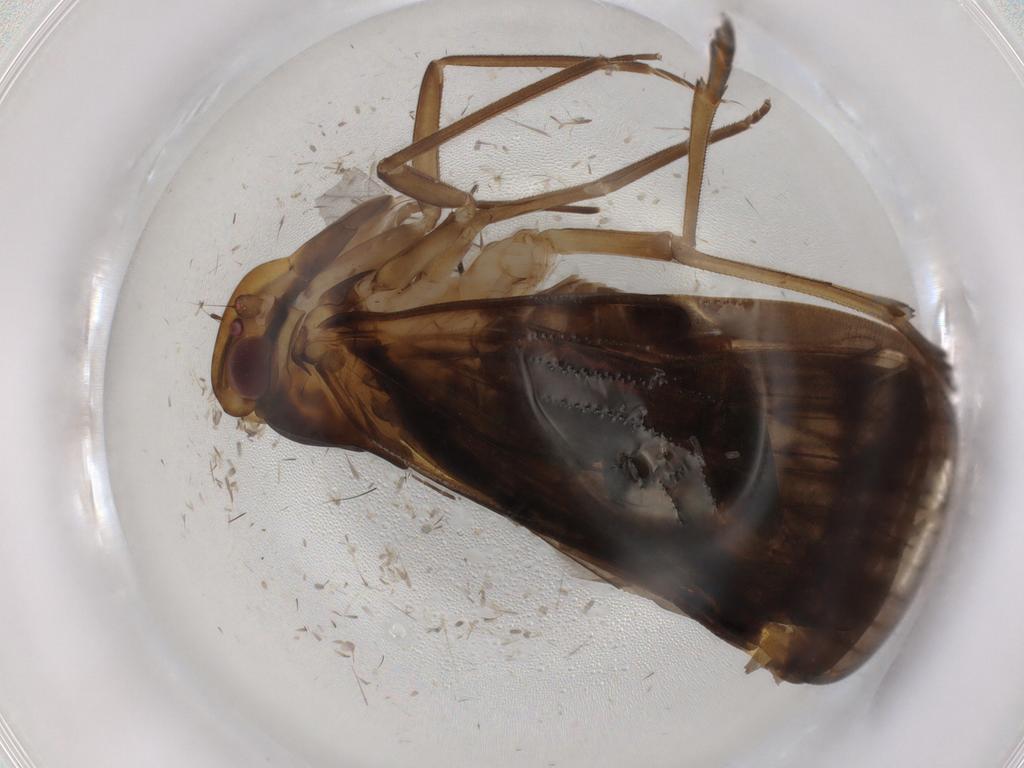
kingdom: Animalia
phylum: Arthropoda
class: Insecta
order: Hemiptera
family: Cixiidae
